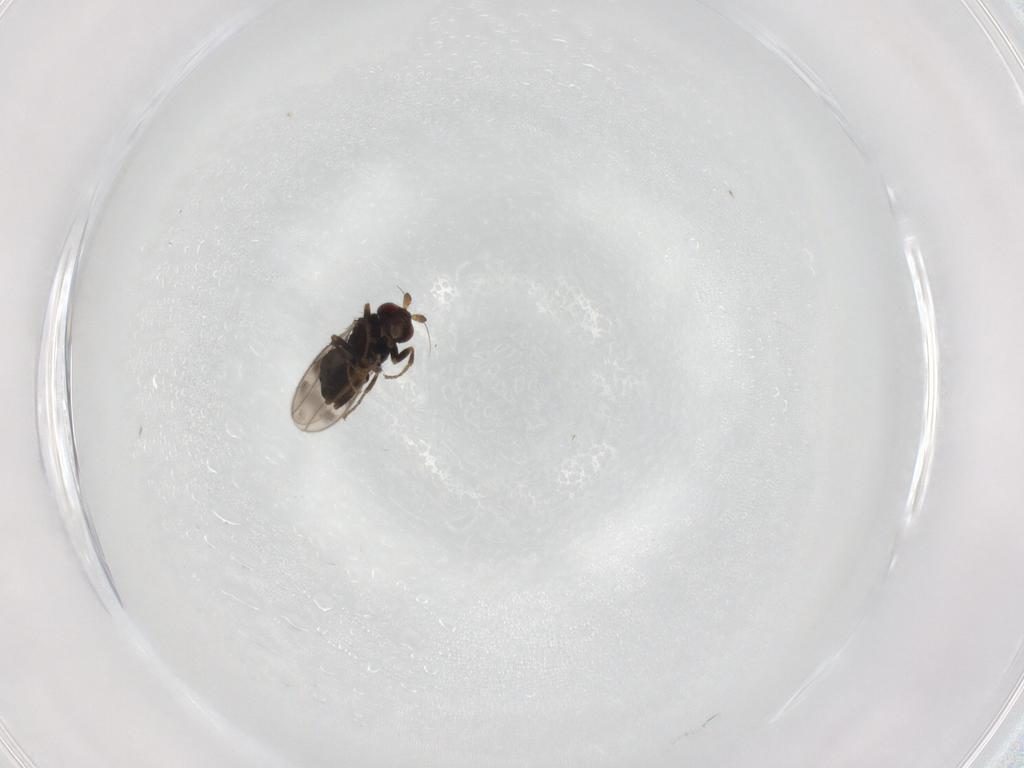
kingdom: Animalia
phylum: Arthropoda
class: Insecta
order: Diptera
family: Sphaeroceridae
